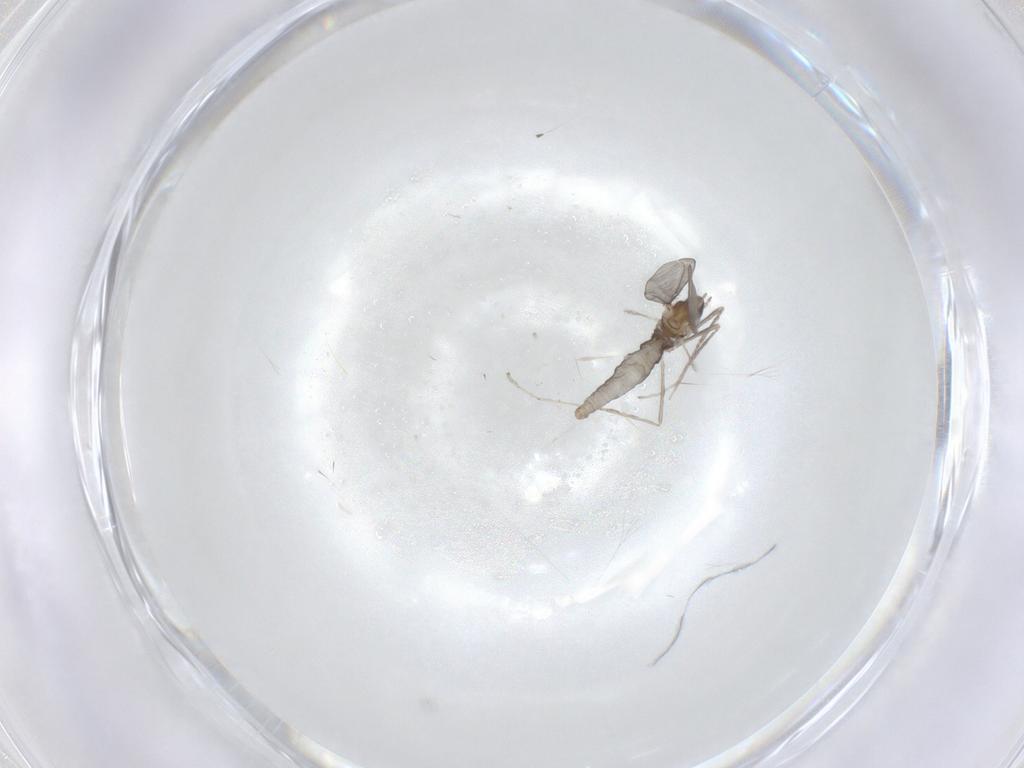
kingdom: Animalia
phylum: Arthropoda
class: Insecta
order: Diptera
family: Cecidomyiidae
